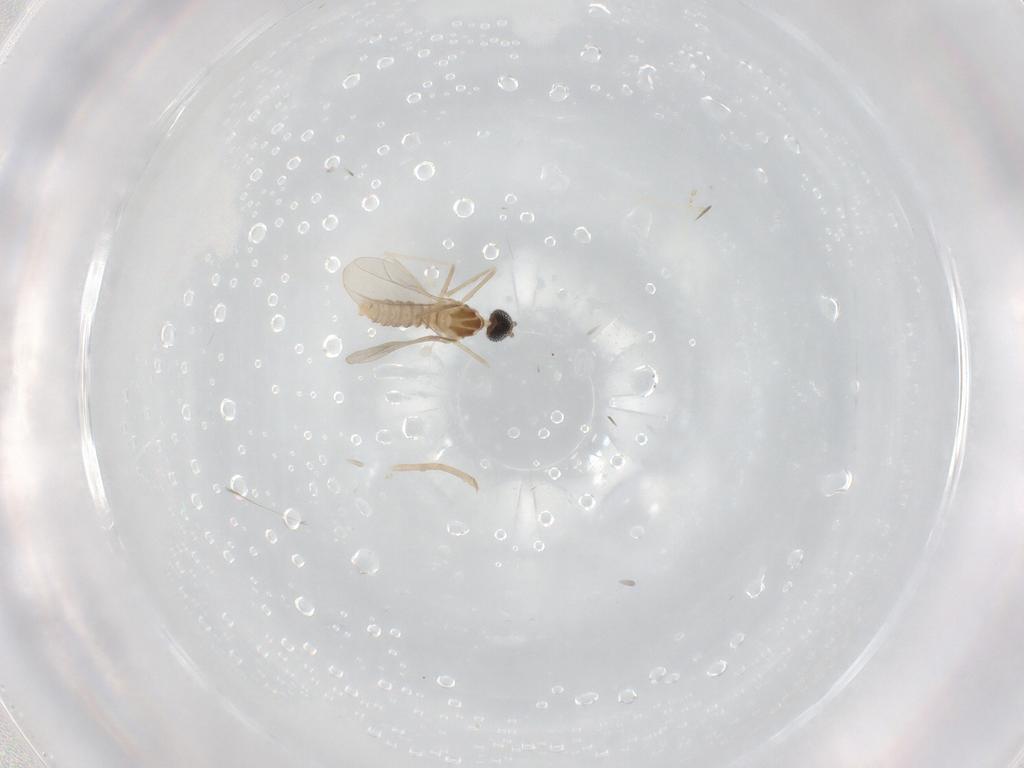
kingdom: Animalia
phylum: Arthropoda
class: Insecta
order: Diptera
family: Cecidomyiidae
